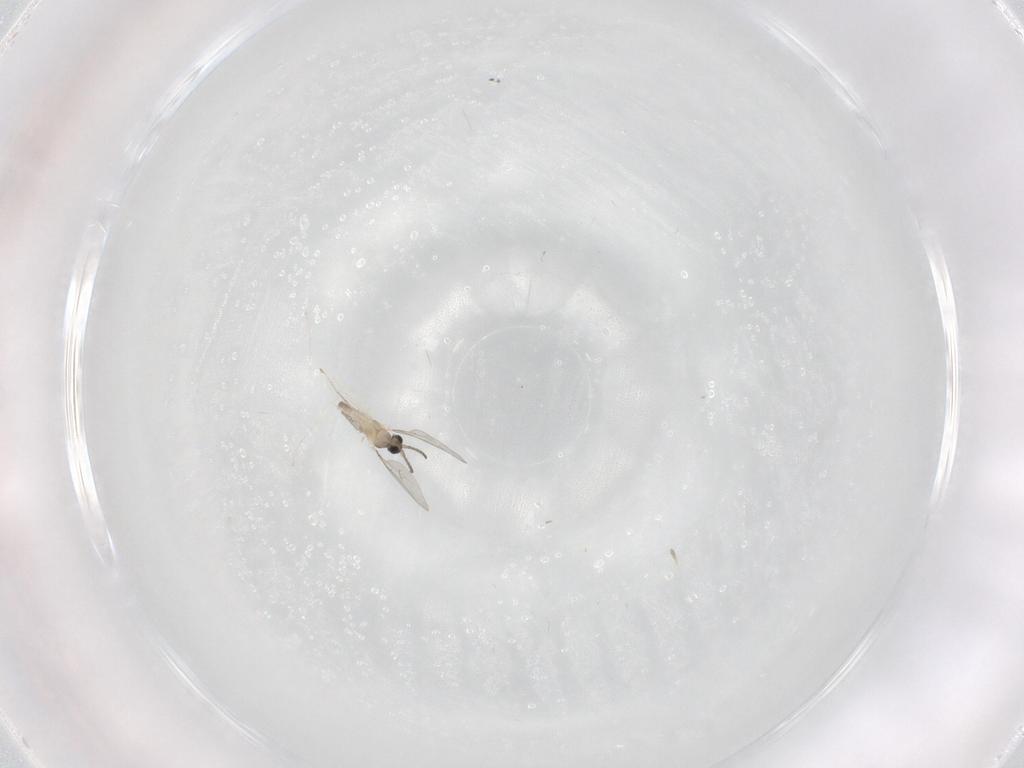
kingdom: Animalia
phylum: Arthropoda
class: Insecta
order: Diptera
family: Cecidomyiidae
